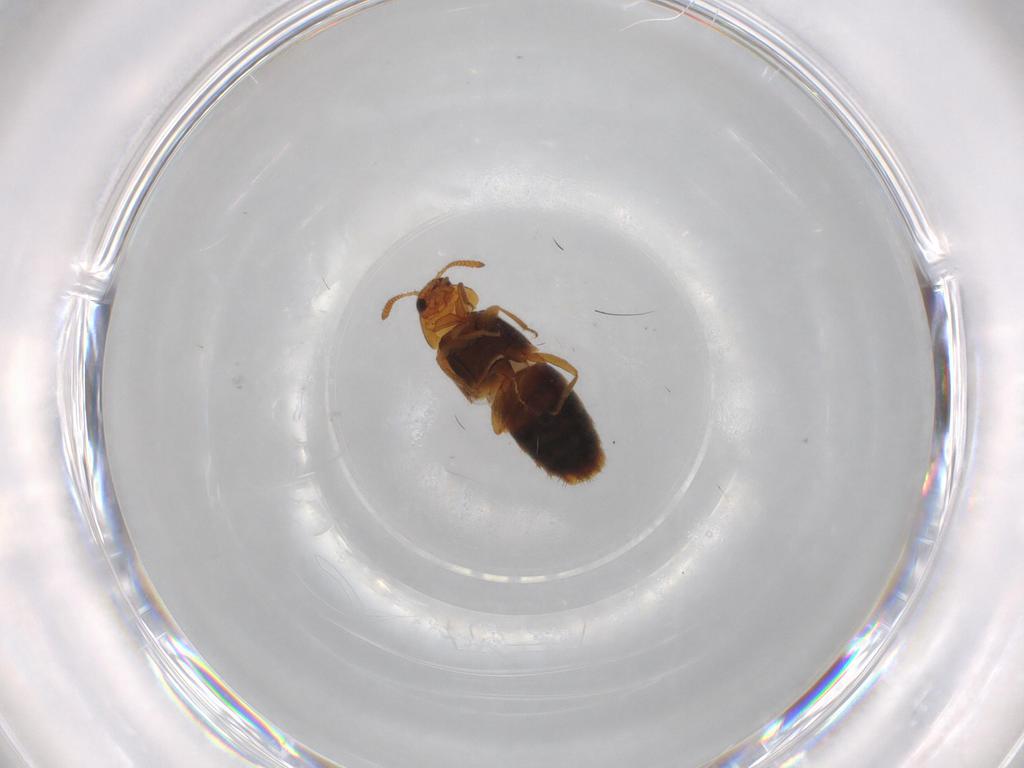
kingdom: Animalia
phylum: Arthropoda
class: Insecta
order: Coleoptera
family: Staphylinidae
